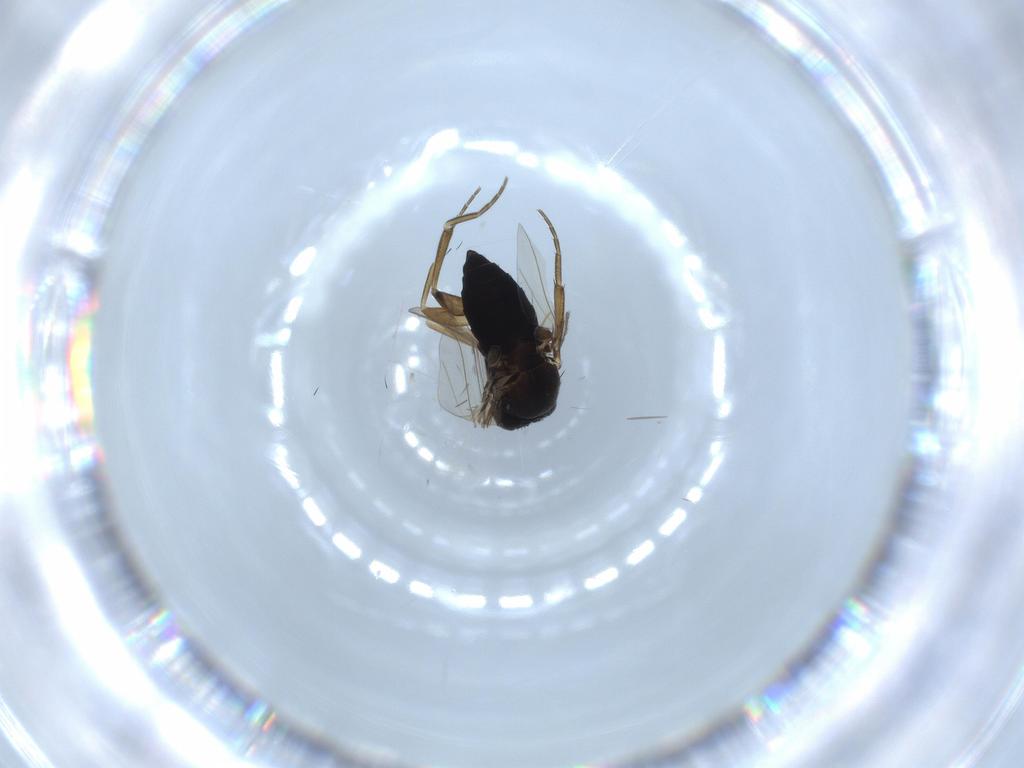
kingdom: Animalia
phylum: Arthropoda
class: Insecta
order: Diptera
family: Phoridae
